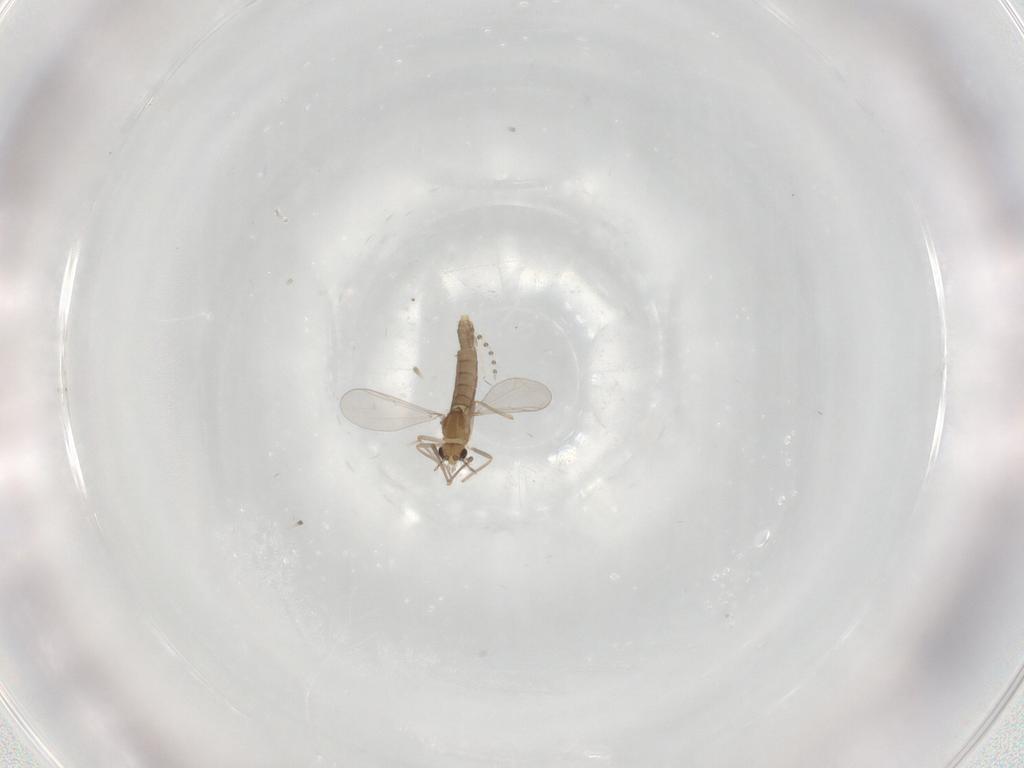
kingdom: Animalia
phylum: Arthropoda
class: Insecta
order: Diptera
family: Chironomidae
